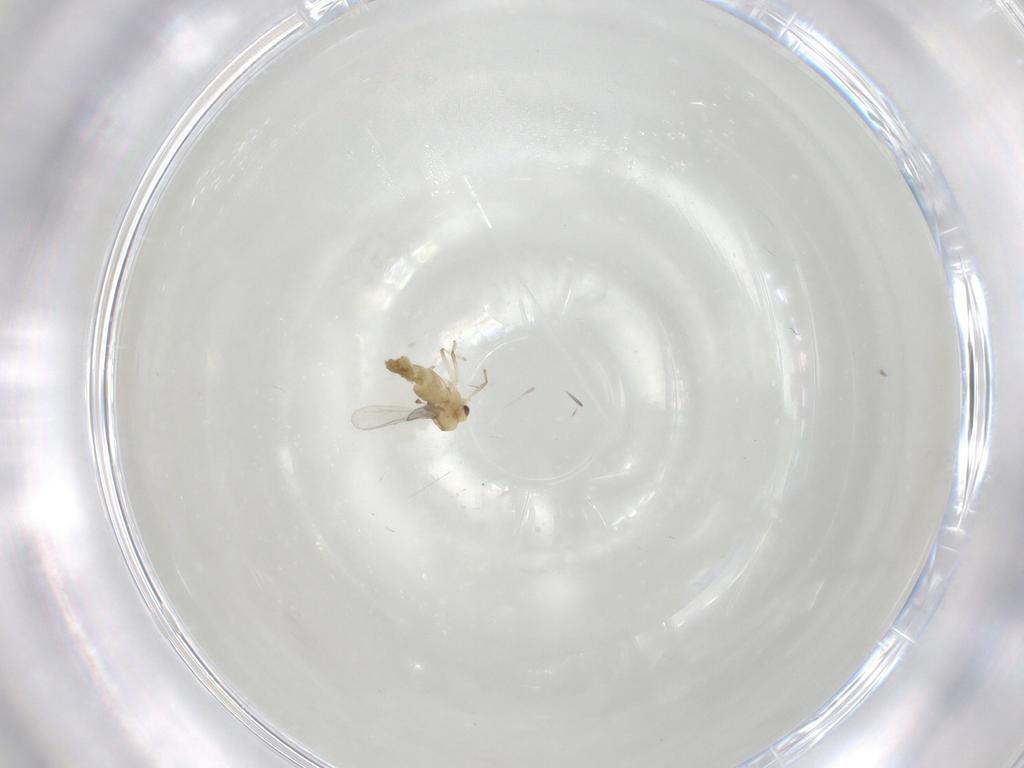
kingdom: Animalia
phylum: Arthropoda
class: Insecta
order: Diptera
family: Chironomidae
